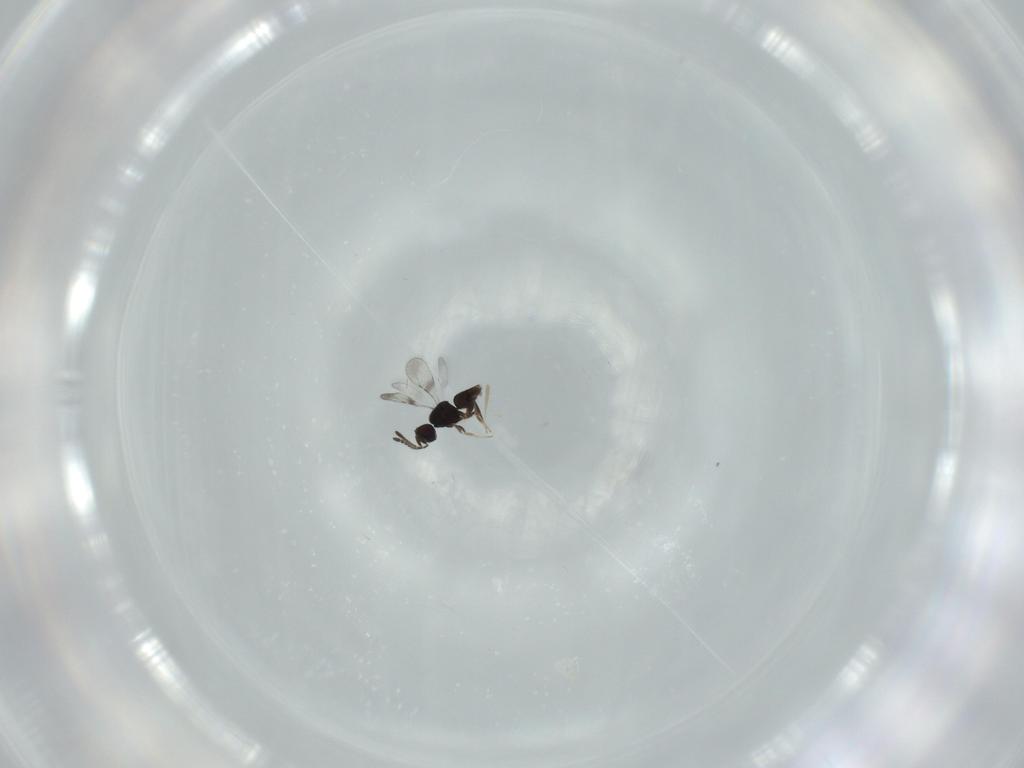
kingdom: Animalia
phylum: Arthropoda
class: Insecta
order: Hymenoptera
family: Ceraphronidae
